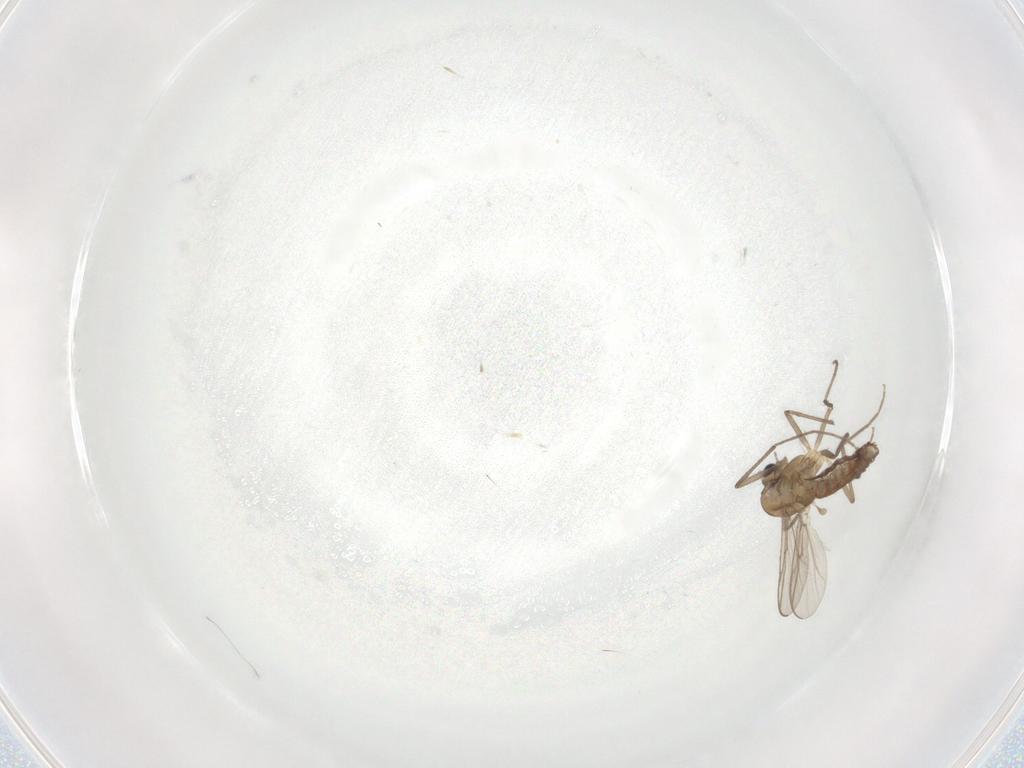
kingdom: Animalia
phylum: Arthropoda
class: Insecta
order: Diptera
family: Chironomidae
